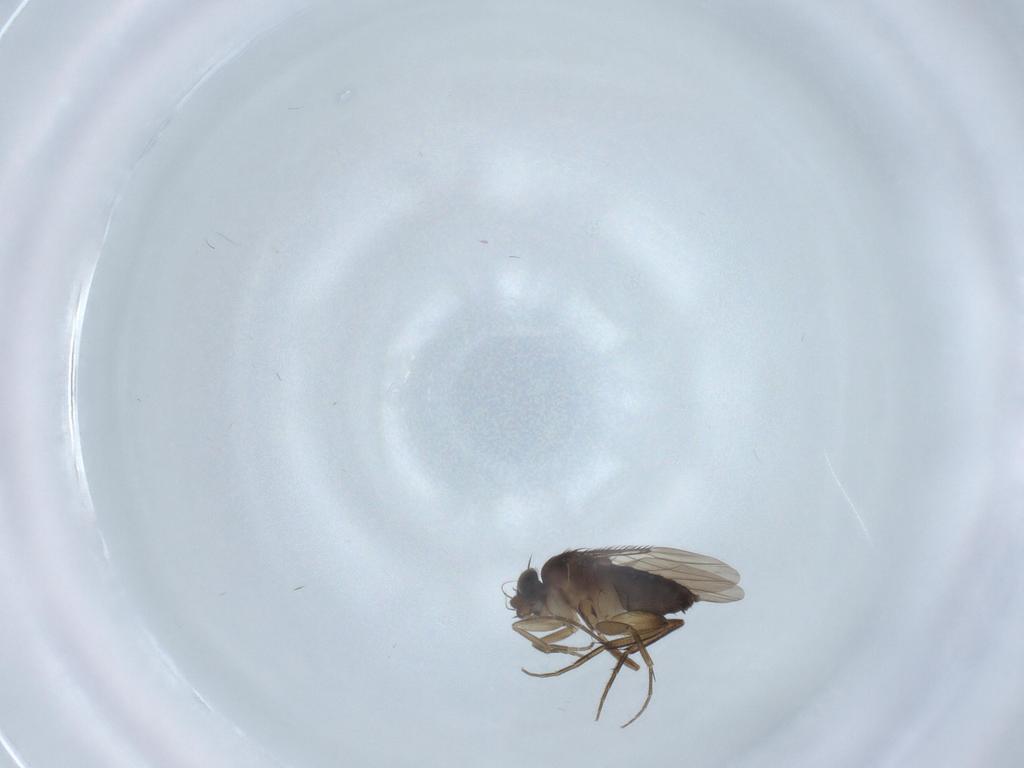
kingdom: Animalia
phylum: Arthropoda
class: Insecta
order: Diptera
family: Phoridae
